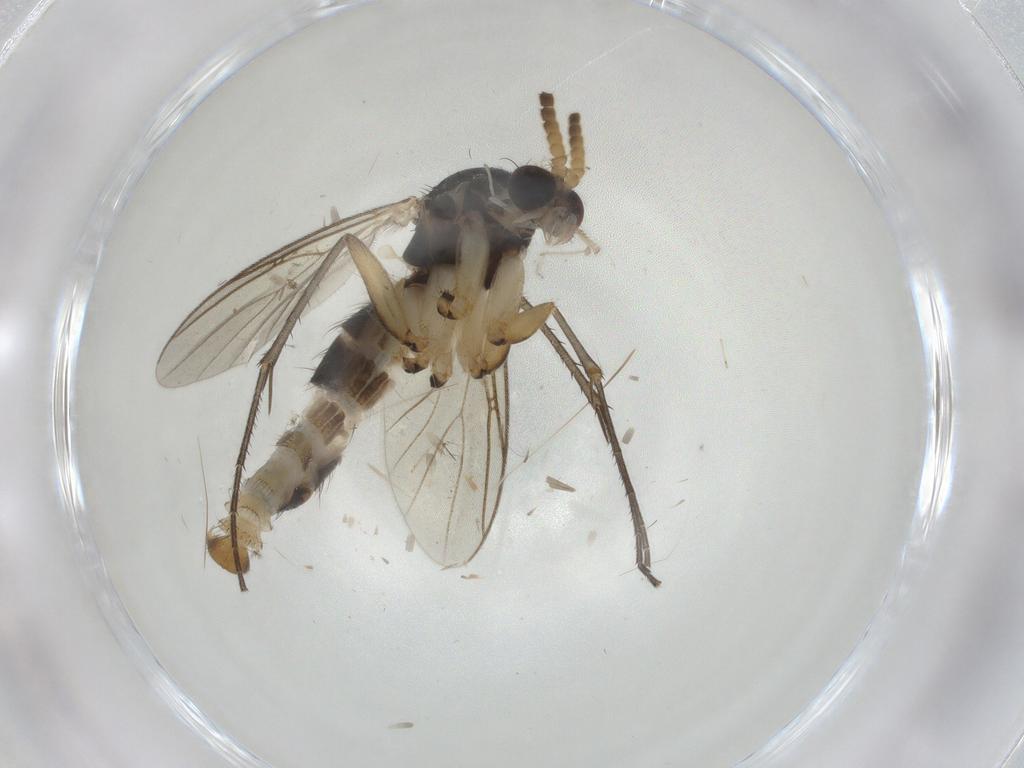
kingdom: Animalia
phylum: Arthropoda
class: Insecta
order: Diptera
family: Mycetophilidae
